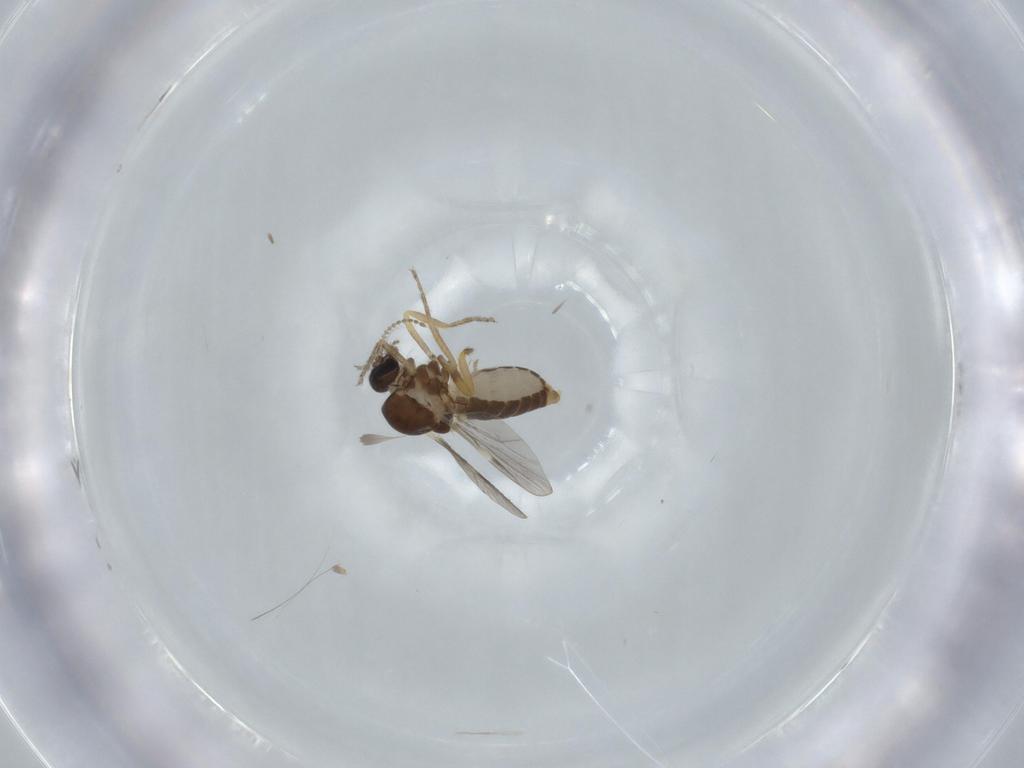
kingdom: Animalia
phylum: Arthropoda
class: Insecta
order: Diptera
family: Ceratopogonidae
